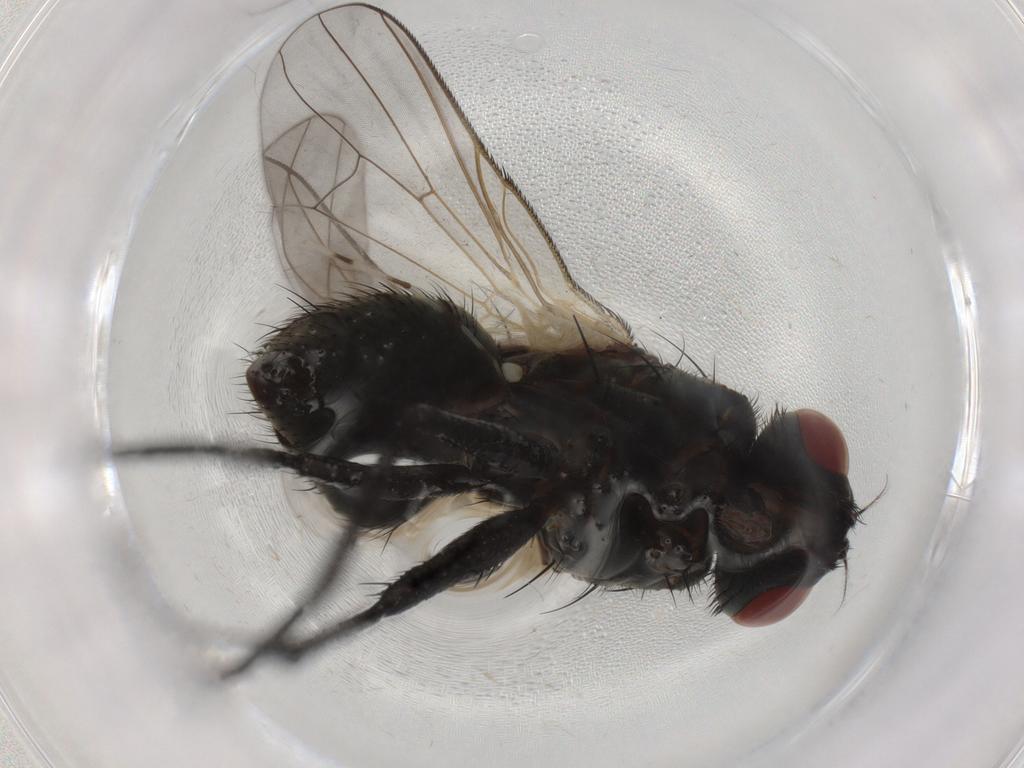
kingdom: Animalia
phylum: Arthropoda
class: Insecta
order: Diptera
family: Muscidae
